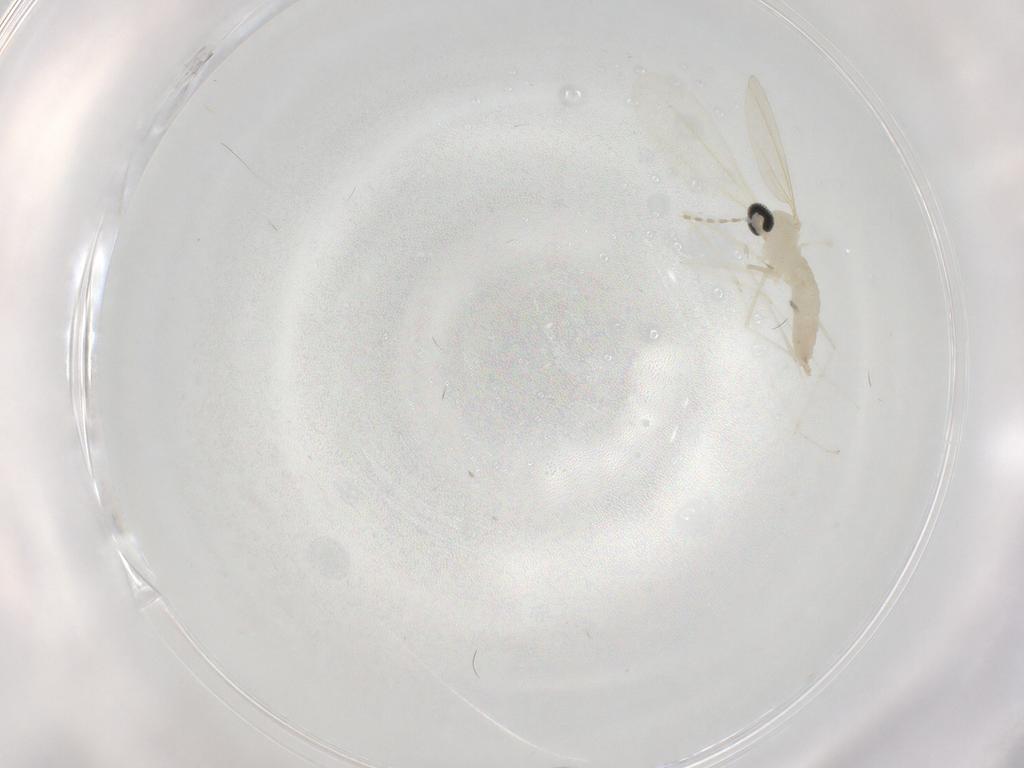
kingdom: Animalia
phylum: Arthropoda
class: Insecta
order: Diptera
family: Cecidomyiidae
